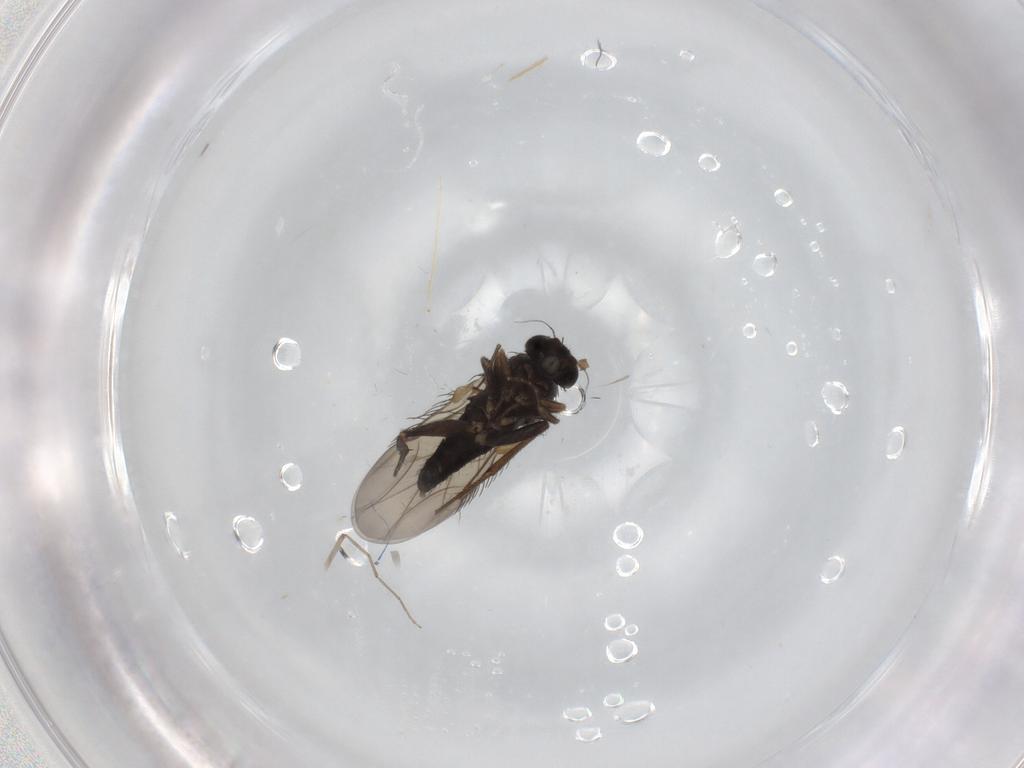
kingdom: Animalia
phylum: Arthropoda
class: Insecta
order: Diptera
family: Phoridae
